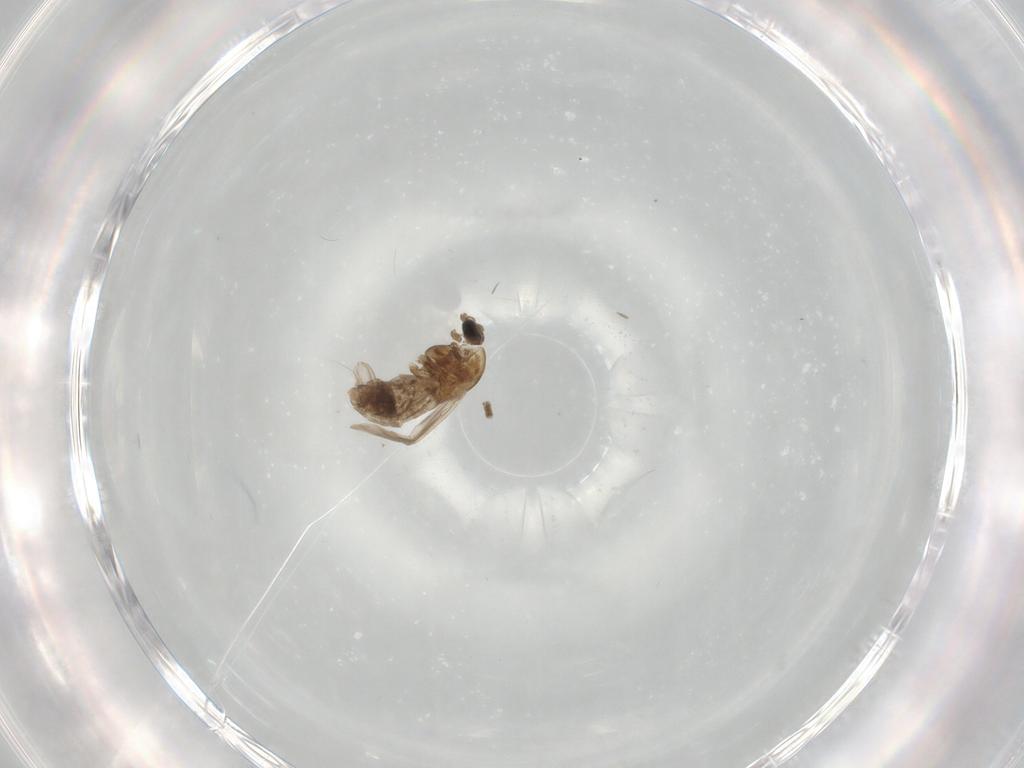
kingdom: Animalia
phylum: Arthropoda
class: Insecta
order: Diptera
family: Chironomidae
